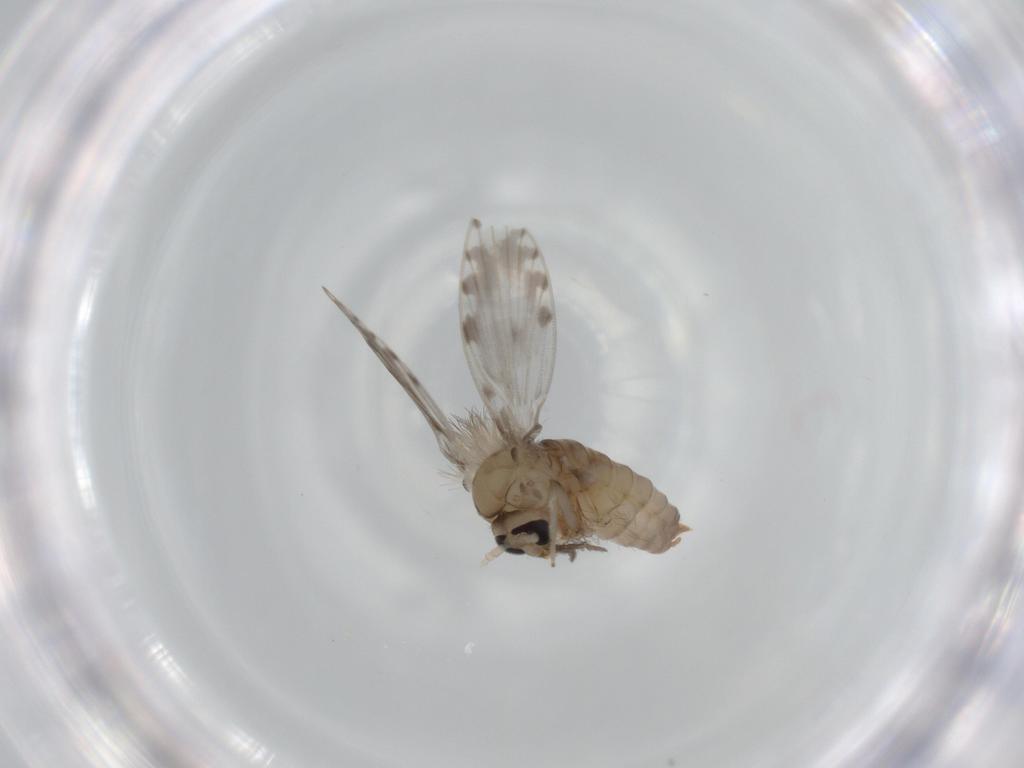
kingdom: Animalia
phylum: Arthropoda
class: Insecta
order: Diptera
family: Psychodidae
